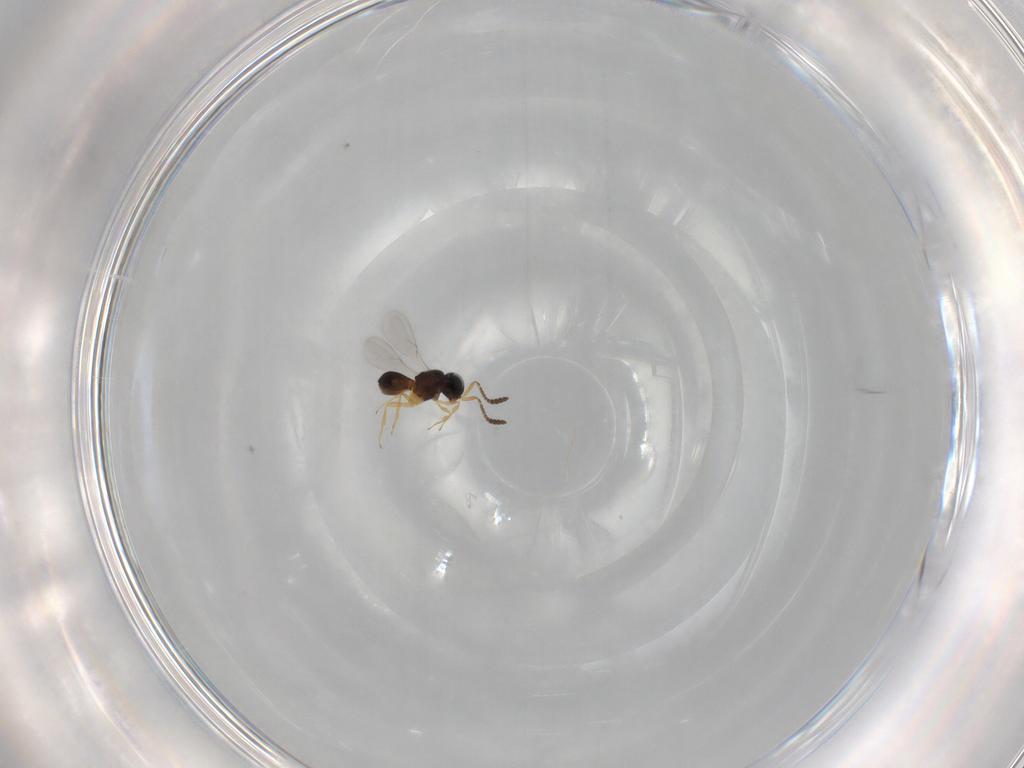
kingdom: Animalia
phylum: Arthropoda
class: Insecta
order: Hymenoptera
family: Scelionidae
